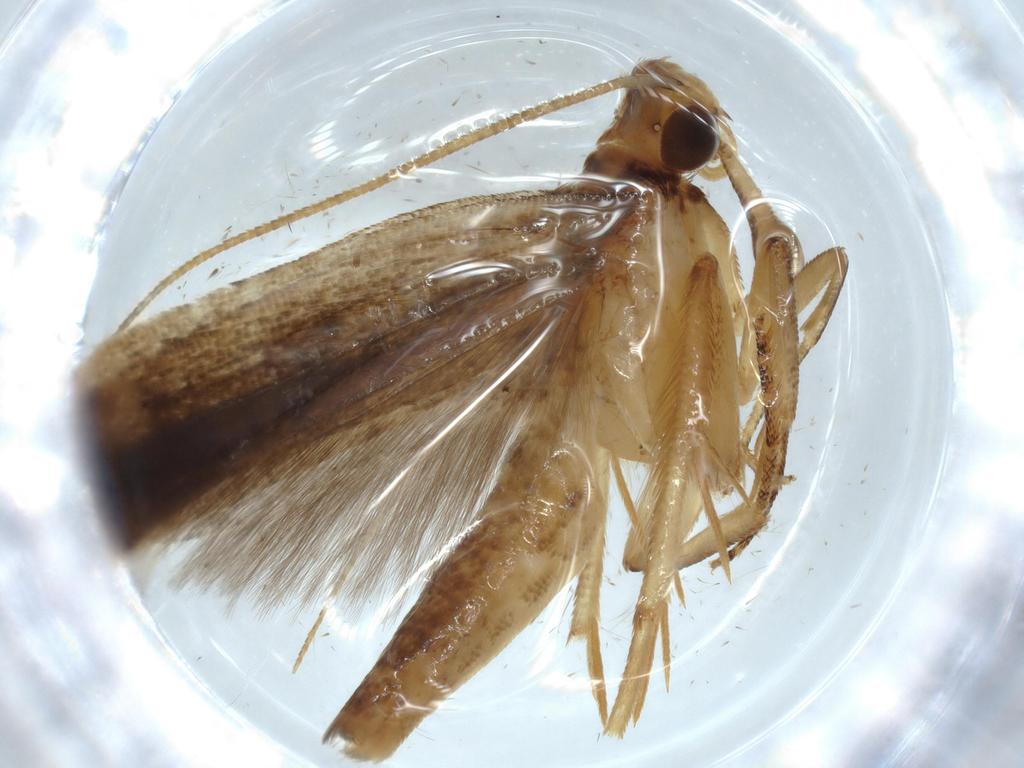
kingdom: Animalia
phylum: Arthropoda
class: Insecta
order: Lepidoptera
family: Gelechiidae
